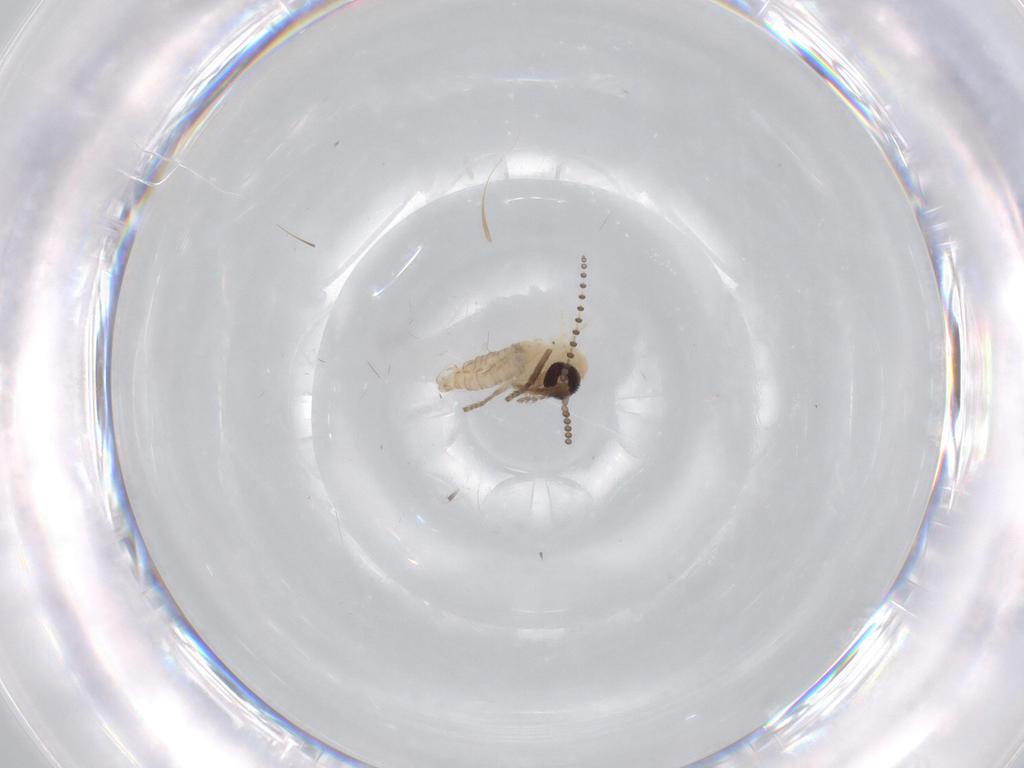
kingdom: Animalia
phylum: Arthropoda
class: Insecta
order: Diptera
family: Psychodidae
